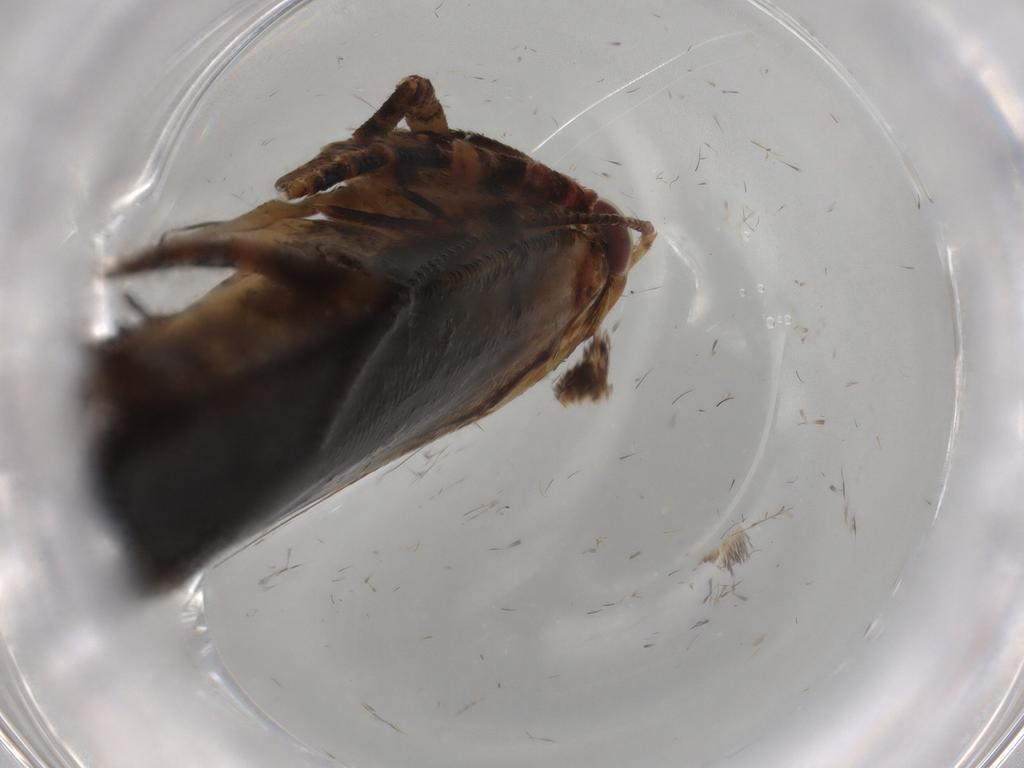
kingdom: Animalia
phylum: Arthropoda
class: Insecta
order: Lepidoptera
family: Gelechiidae
